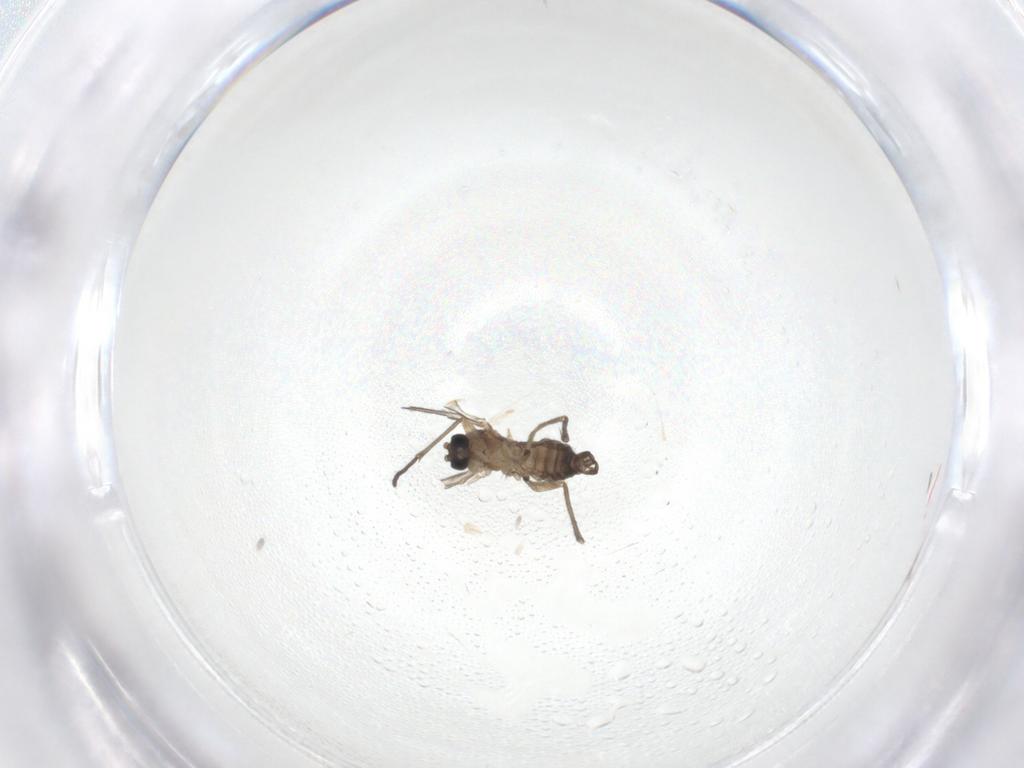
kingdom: Animalia
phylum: Arthropoda
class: Insecta
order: Diptera
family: Sciaridae
